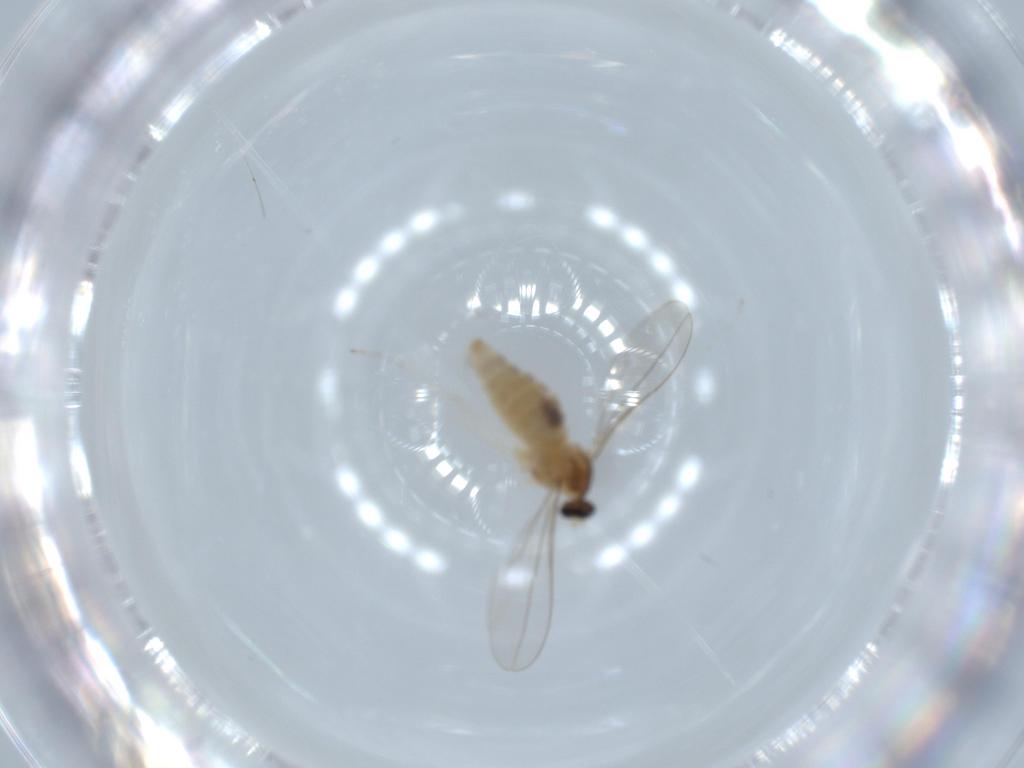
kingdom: Animalia
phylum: Arthropoda
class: Insecta
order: Diptera
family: Cecidomyiidae
